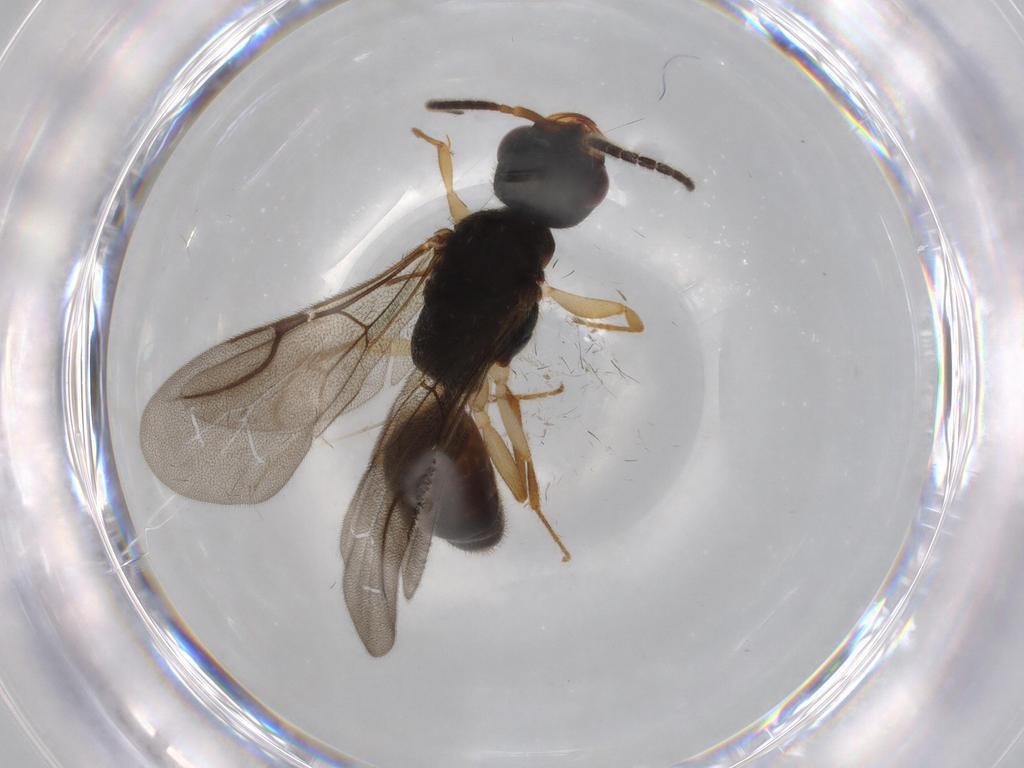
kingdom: Animalia
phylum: Arthropoda
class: Insecta
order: Hymenoptera
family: Bethylidae
